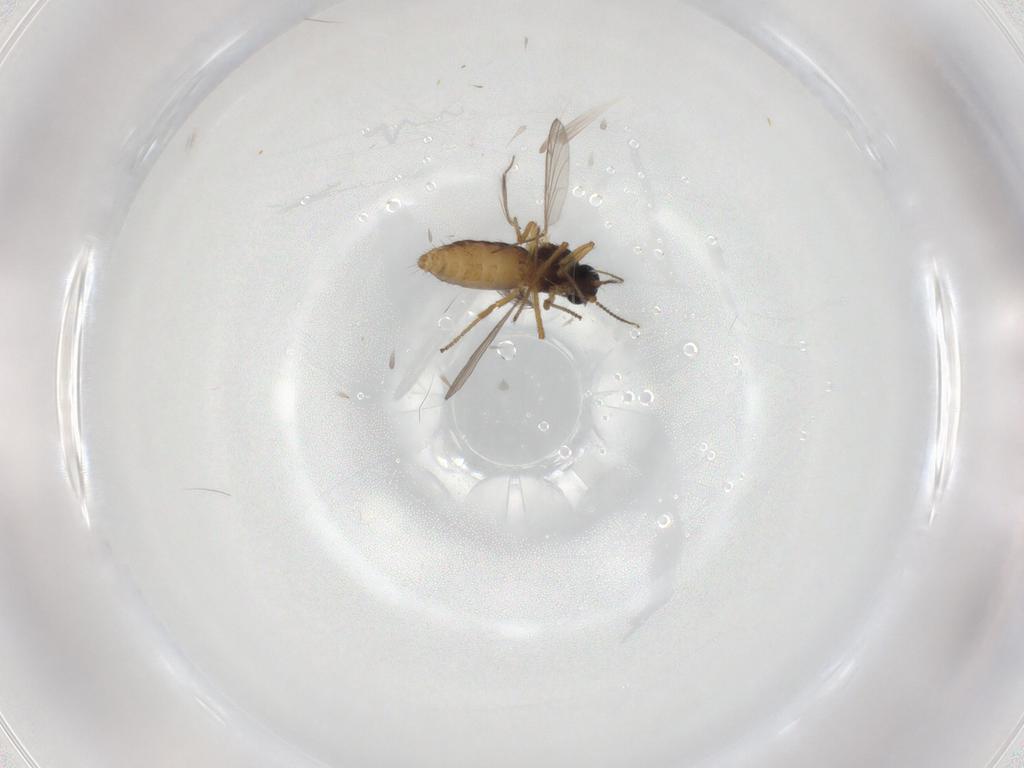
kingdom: Animalia
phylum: Arthropoda
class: Insecta
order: Diptera
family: Ceratopogonidae
